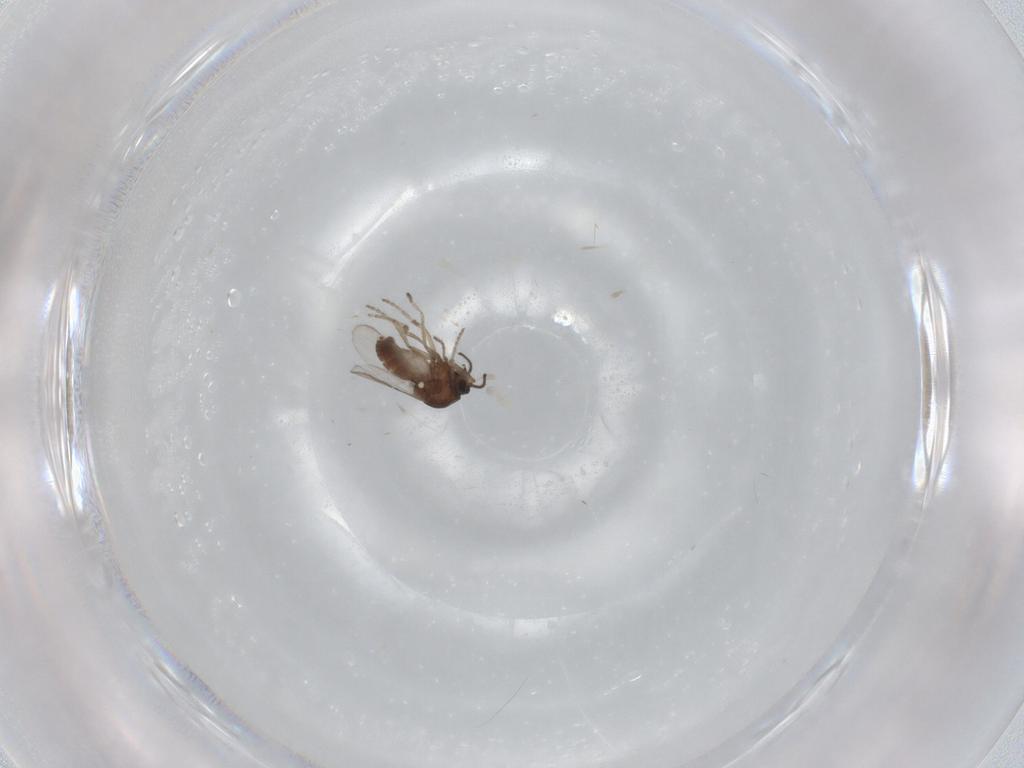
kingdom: Animalia
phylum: Arthropoda
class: Insecta
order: Diptera
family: Ceratopogonidae
